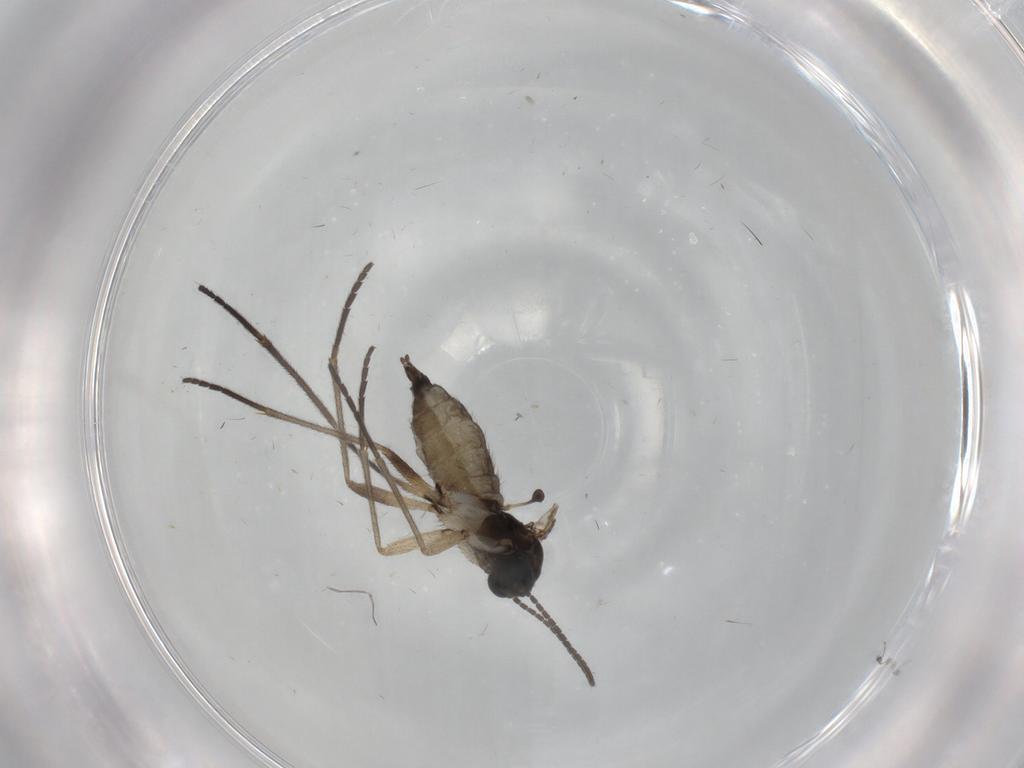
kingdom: Animalia
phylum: Arthropoda
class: Insecta
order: Diptera
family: Sciaridae
